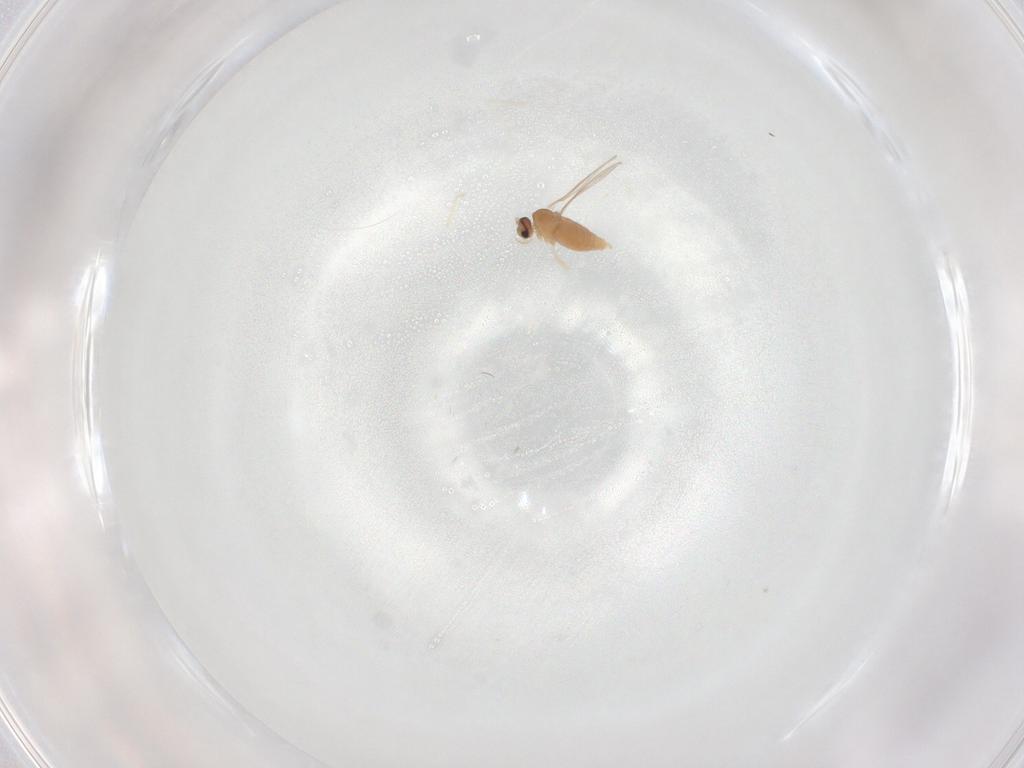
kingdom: Animalia
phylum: Arthropoda
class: Insecta
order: Diptera
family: Cecidomyiidae
